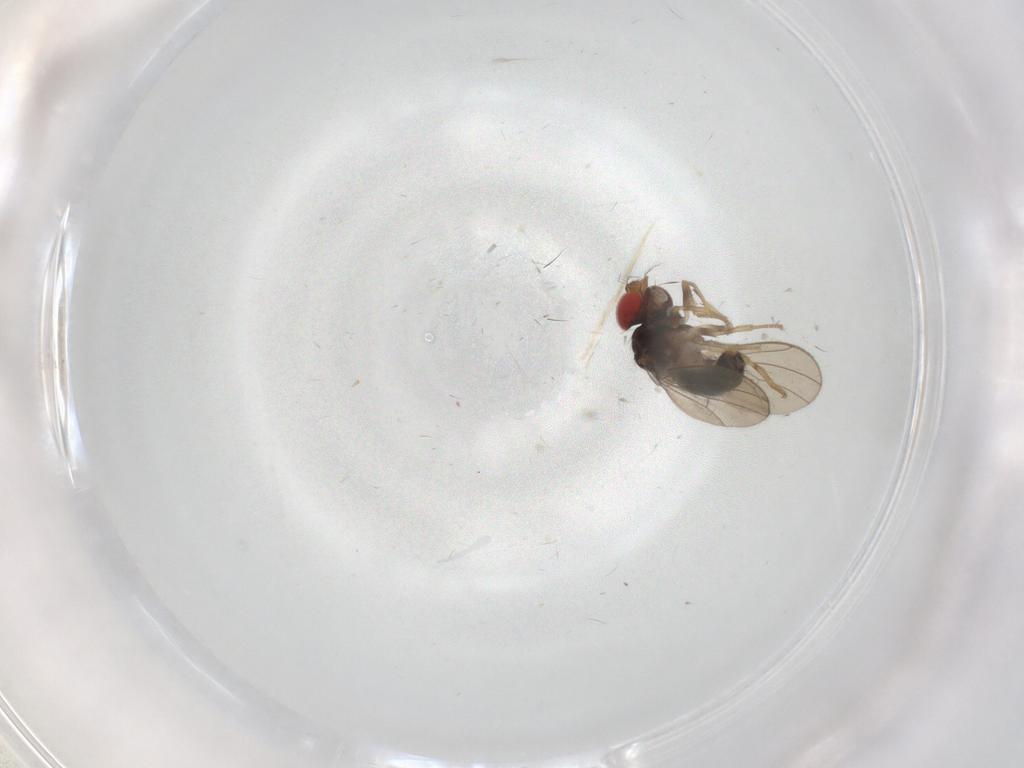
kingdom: Animalia
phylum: Arthropoda
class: Insecta
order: Diptera
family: Drosophilidae
